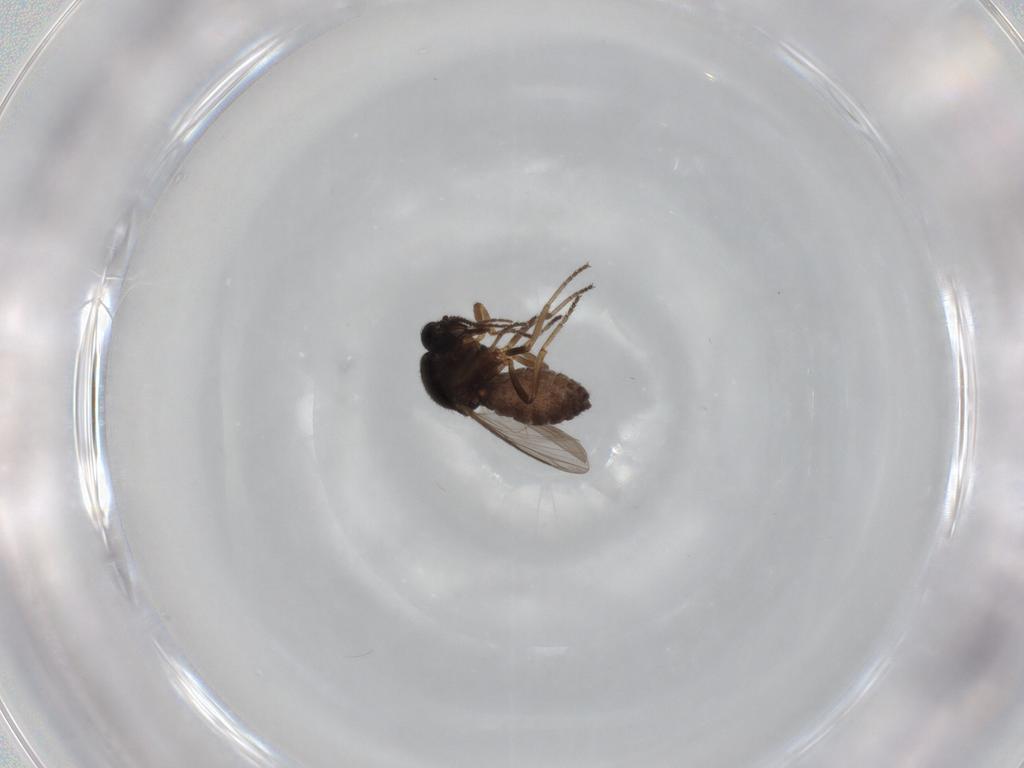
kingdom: Animalia
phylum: Arthropoda
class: Insecta
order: Diptera
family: Ceratopogonidae
